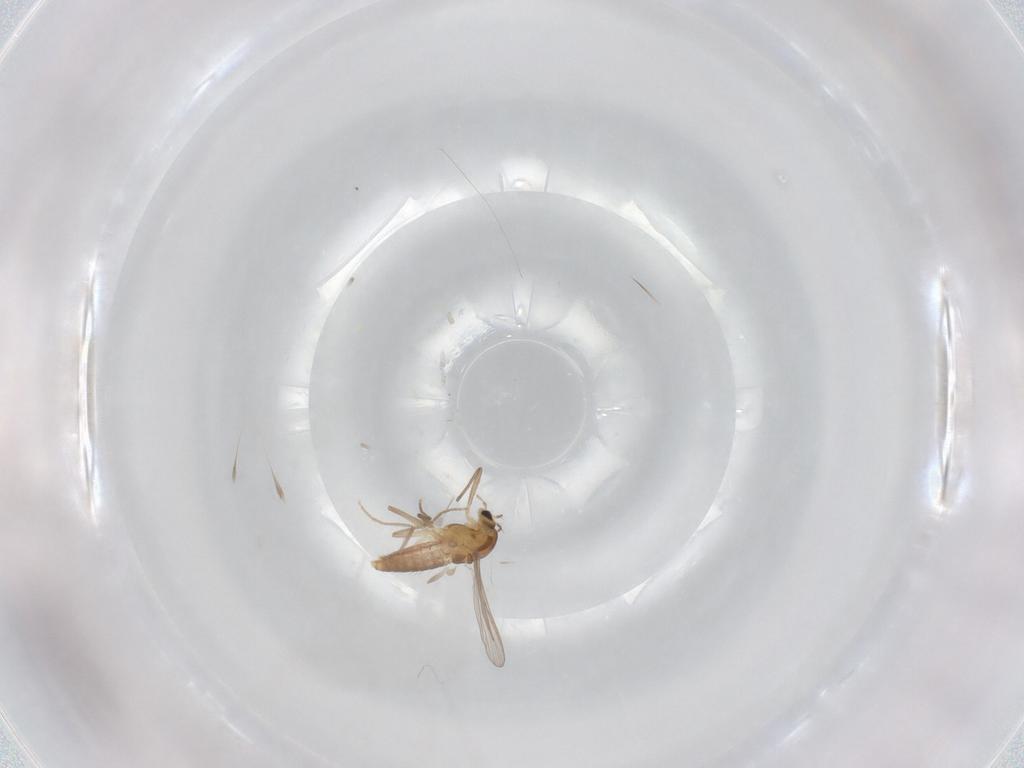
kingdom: Animalia
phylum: Arthropoda
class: Insecta
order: Diptera
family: Chironomidae
